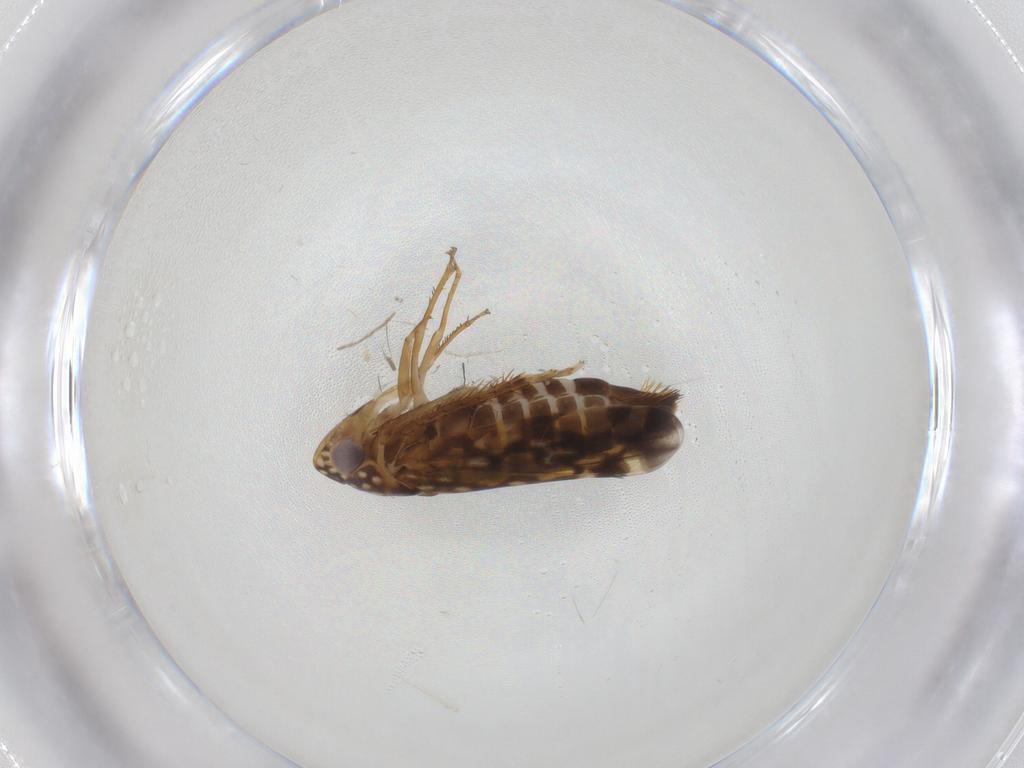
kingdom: Animalia
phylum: Arthropoda
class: Insecta
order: Hemiptera
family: Cicadellidae
